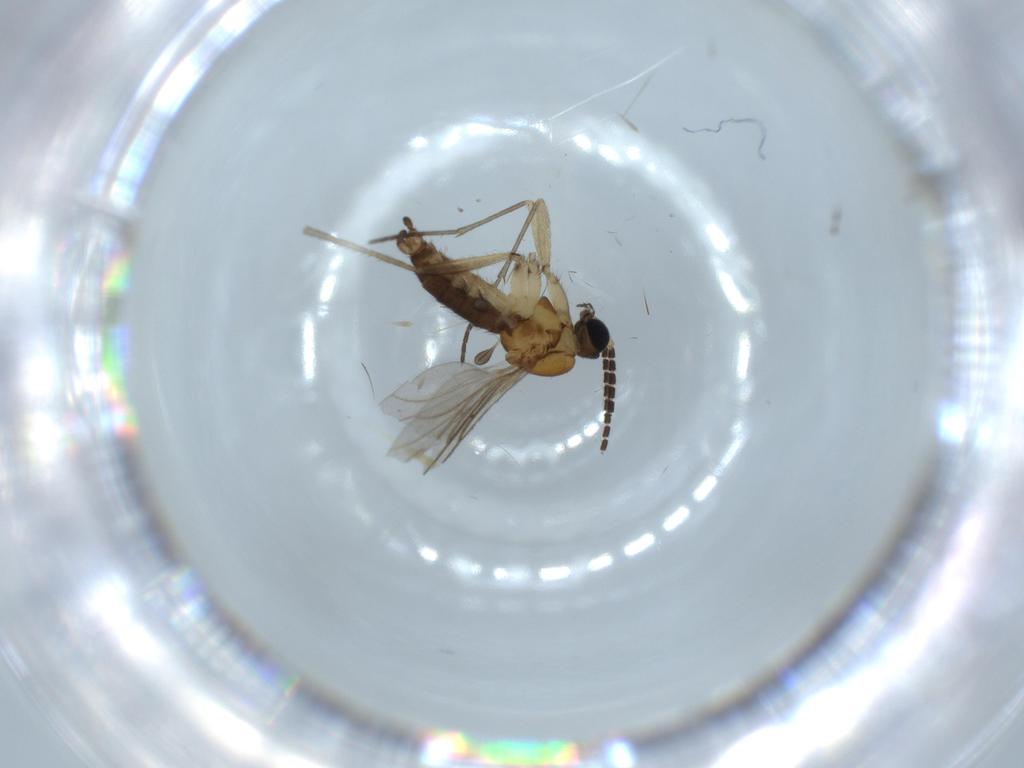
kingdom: Animalia
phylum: Arthropoda
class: Insecta
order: Diptera
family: Sciaridae
